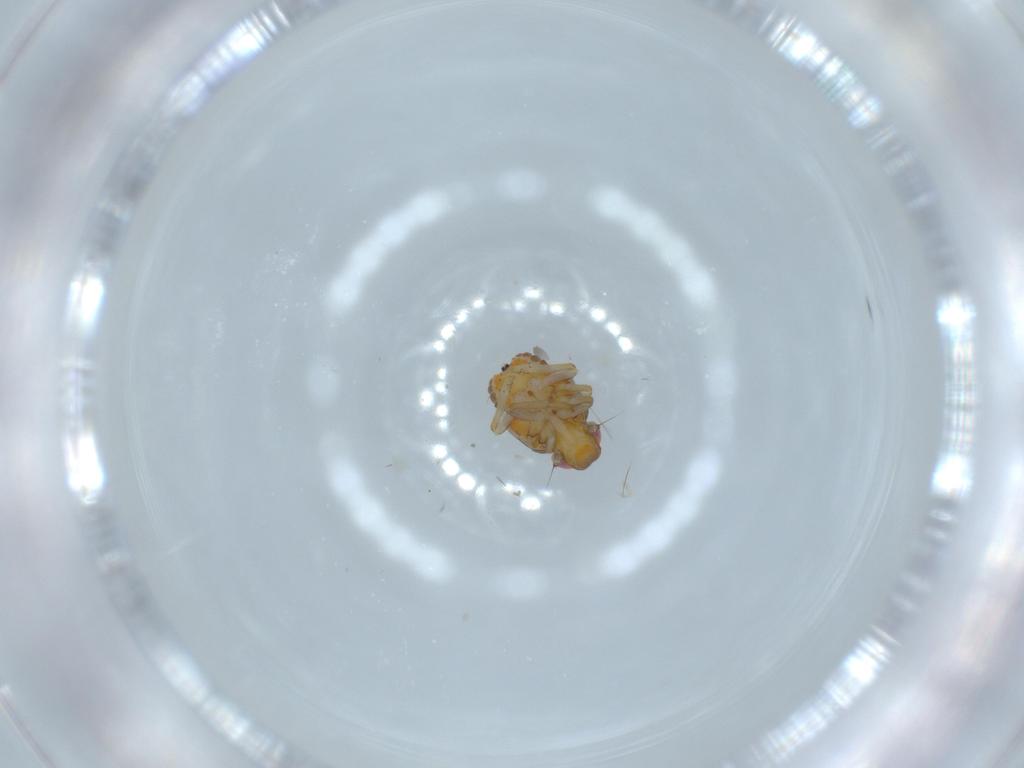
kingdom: Animalia
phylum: Arthropoda
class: Insecta
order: Hemiptera
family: Issidae
